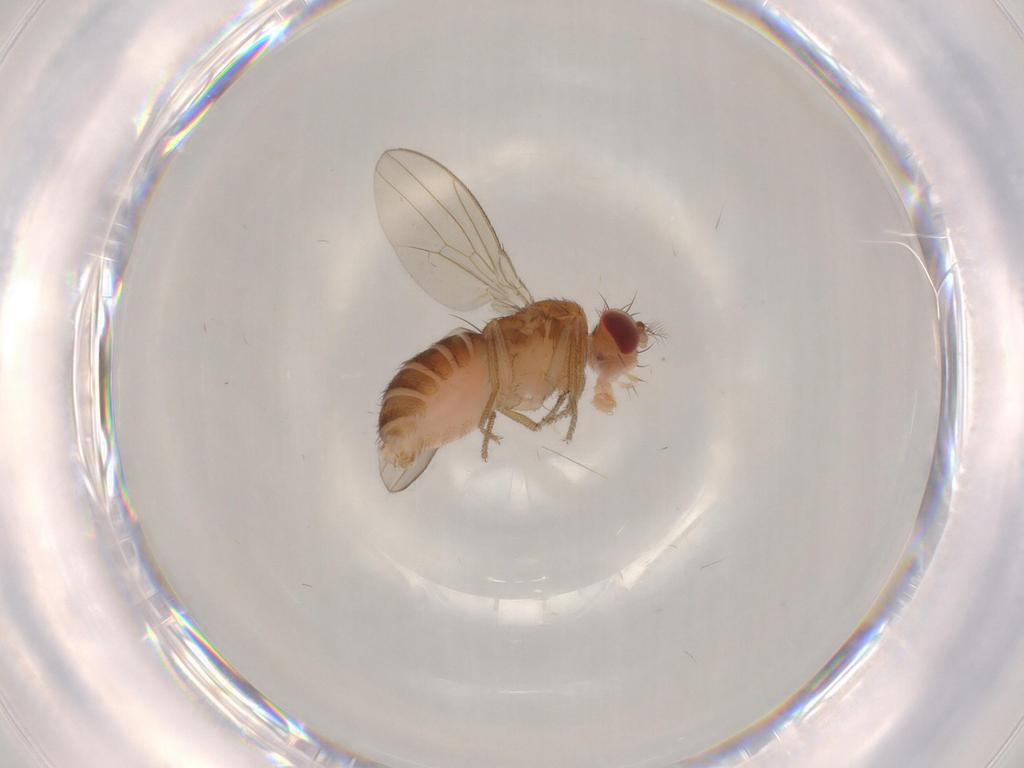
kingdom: Animalia
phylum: Arthropoda
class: Insecta
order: Diptera
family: Drosophilidae
